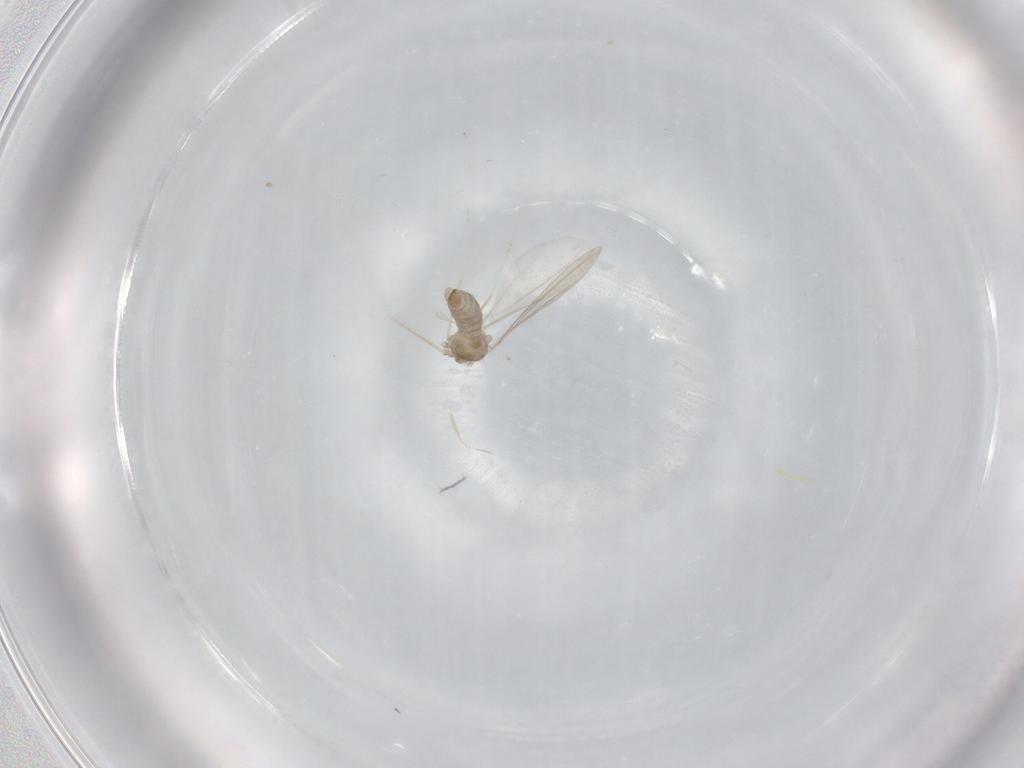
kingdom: Animalia
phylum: Arthropoda
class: Insecta
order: Diptera
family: Cecidomyiidae
